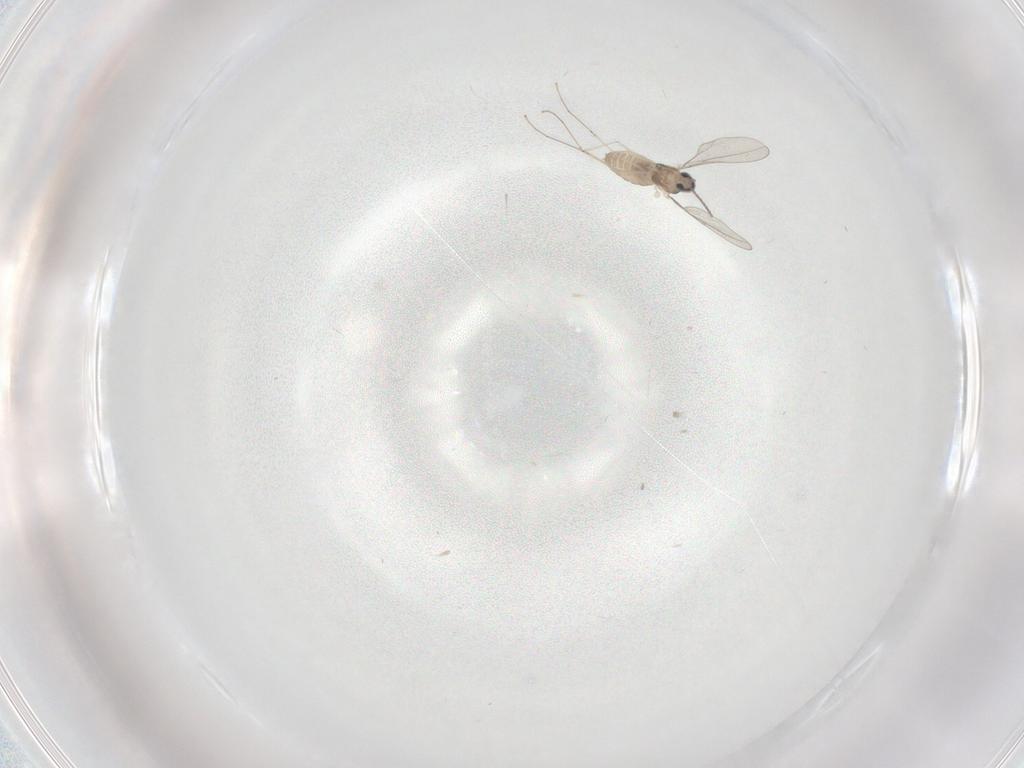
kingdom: Animalia
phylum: Arthropoda
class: Insecta
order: Diptera
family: Cecidomyiidae
